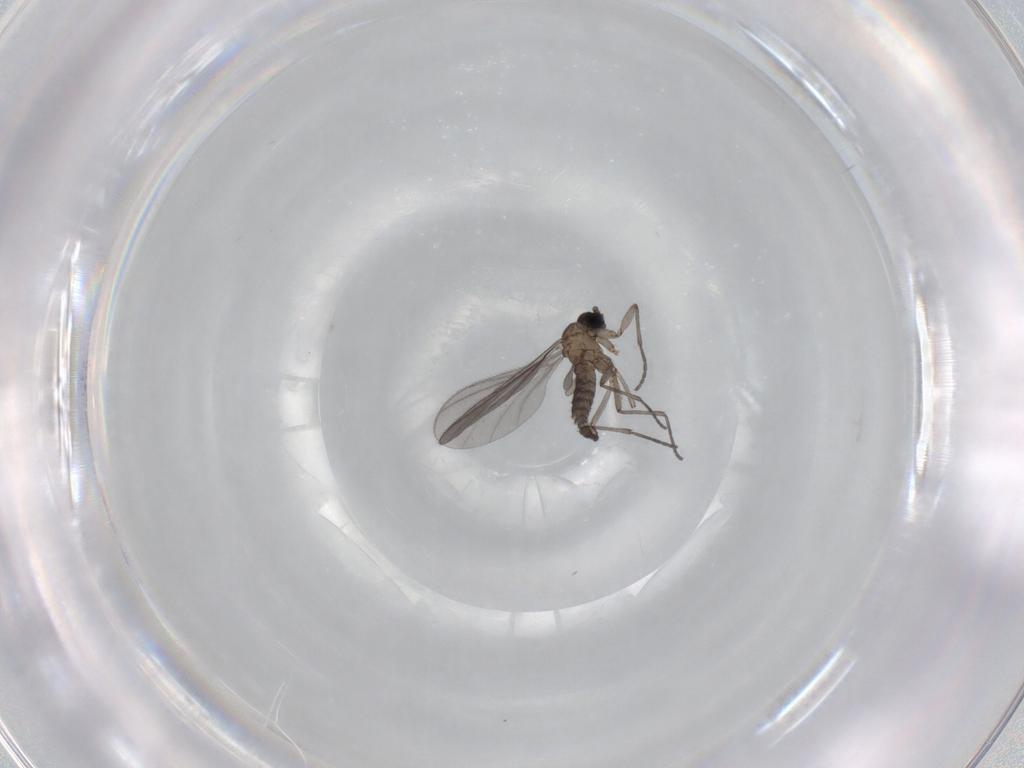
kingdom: Animalia
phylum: Arthropoda
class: Insecta
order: Diptera
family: Sciaridae
